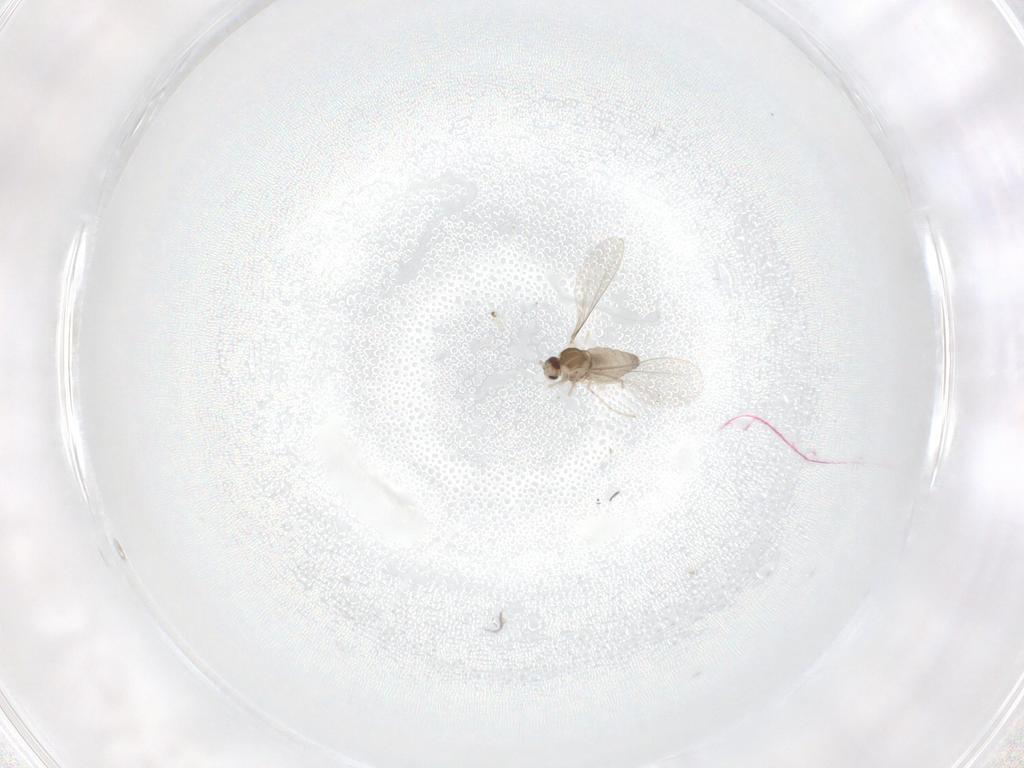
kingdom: Animalia
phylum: Arthropoda
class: Insecta
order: Diptera
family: Cecidomyiidae
